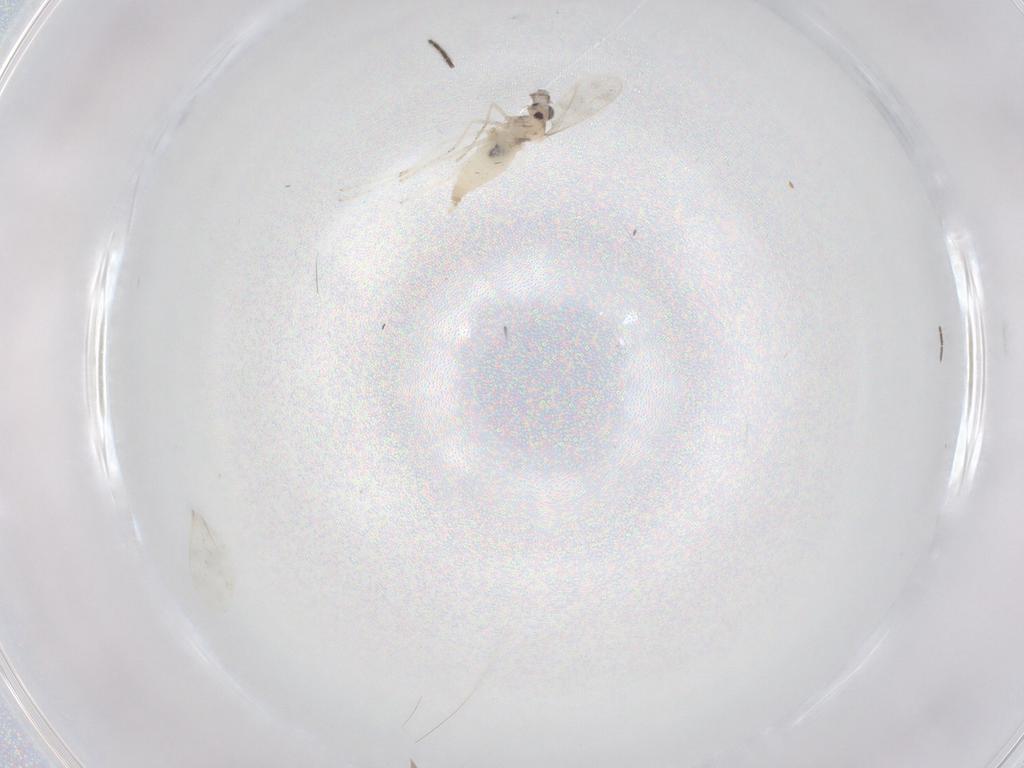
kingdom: Animalia
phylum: Arthropoda
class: Insecta
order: Diptera
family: Cecidomyiidae
